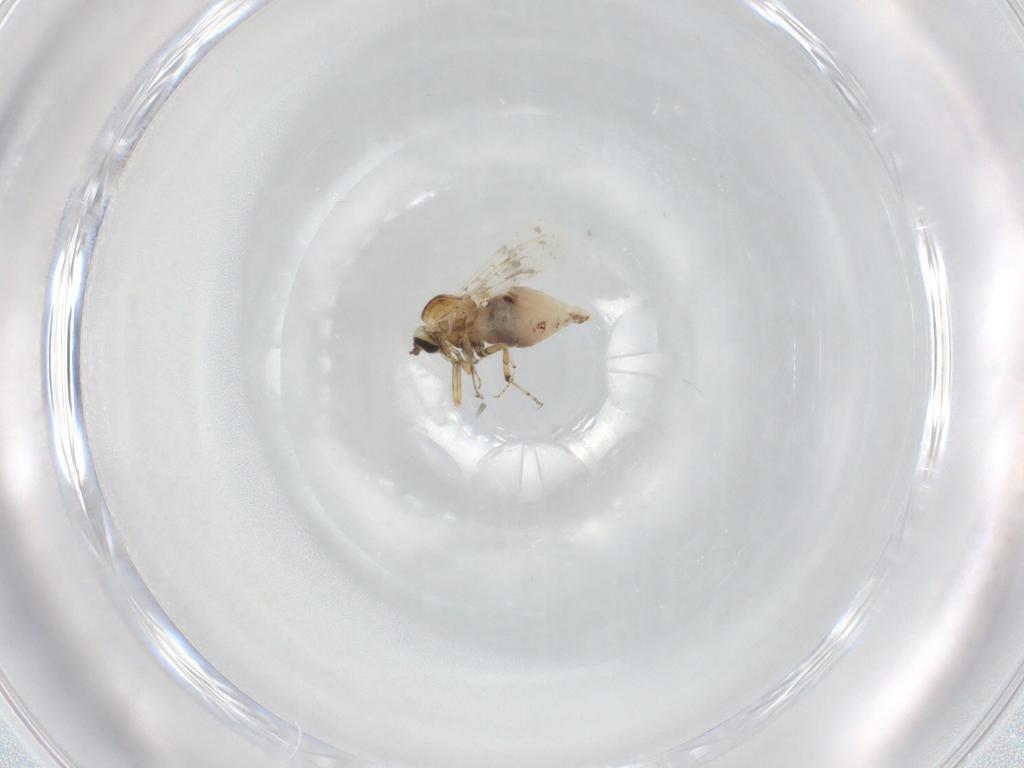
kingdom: Animalia
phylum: Arthropoda
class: Insecta
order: Diptera
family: Ceratopogonidae
